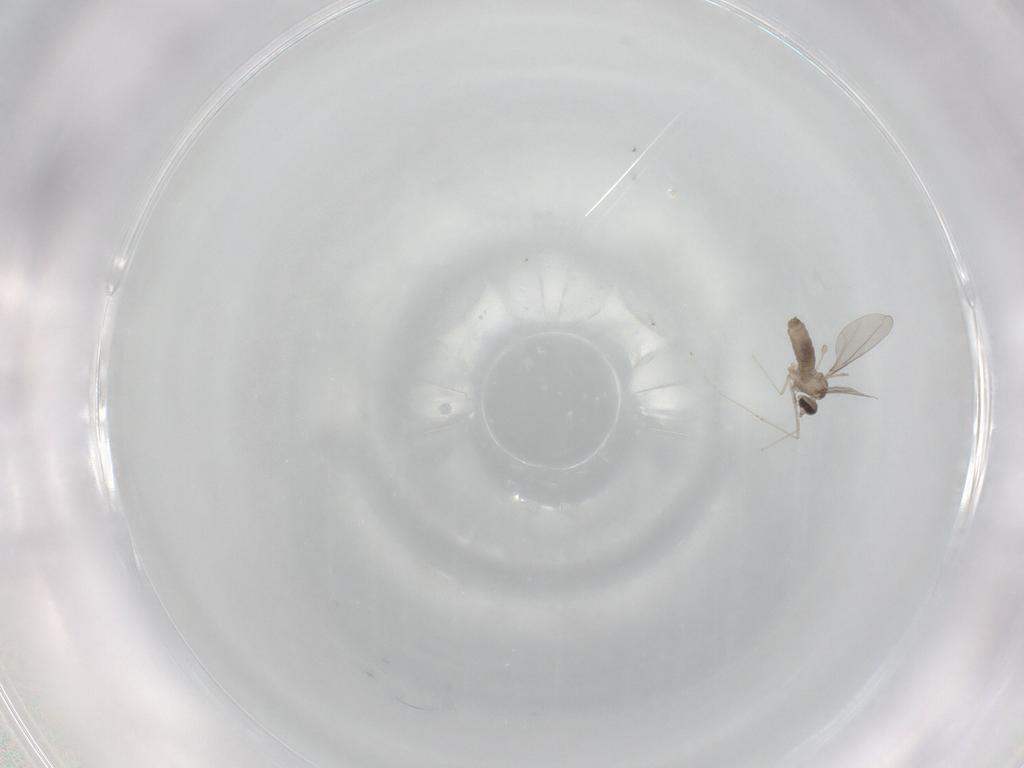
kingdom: Animalia
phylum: Arthropoda
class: Insecta
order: Diptera
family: Cecidomyiidae
